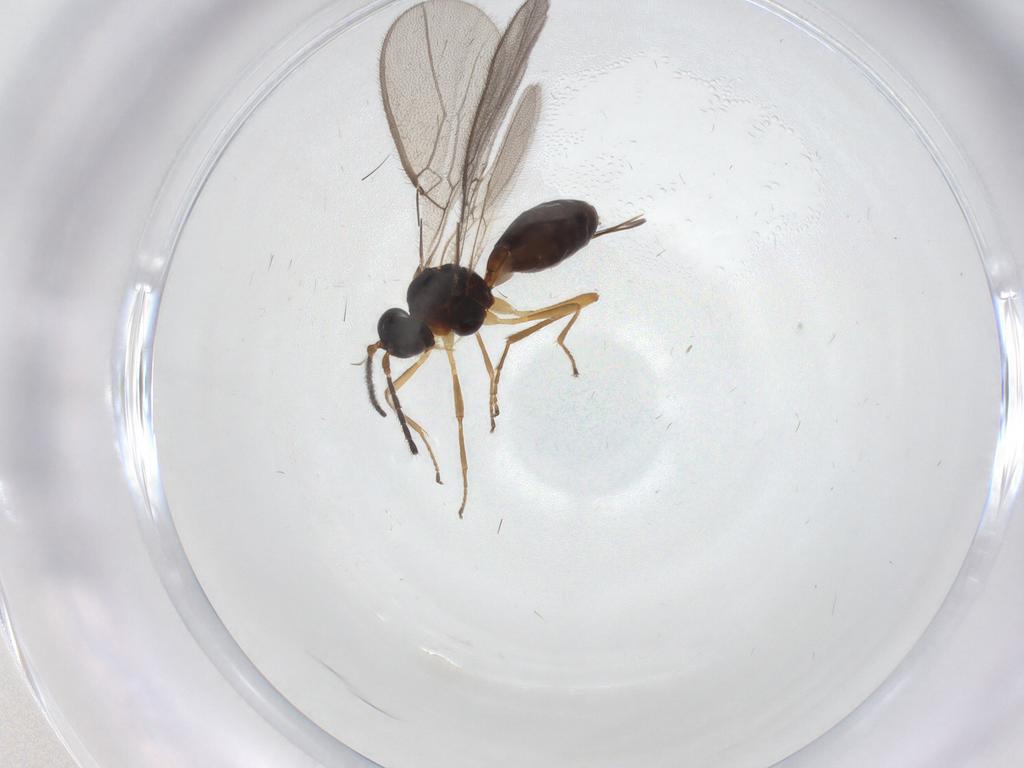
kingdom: Animalia
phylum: Arthropoda
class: Insecta
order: Hymenoptera
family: Braconidae
